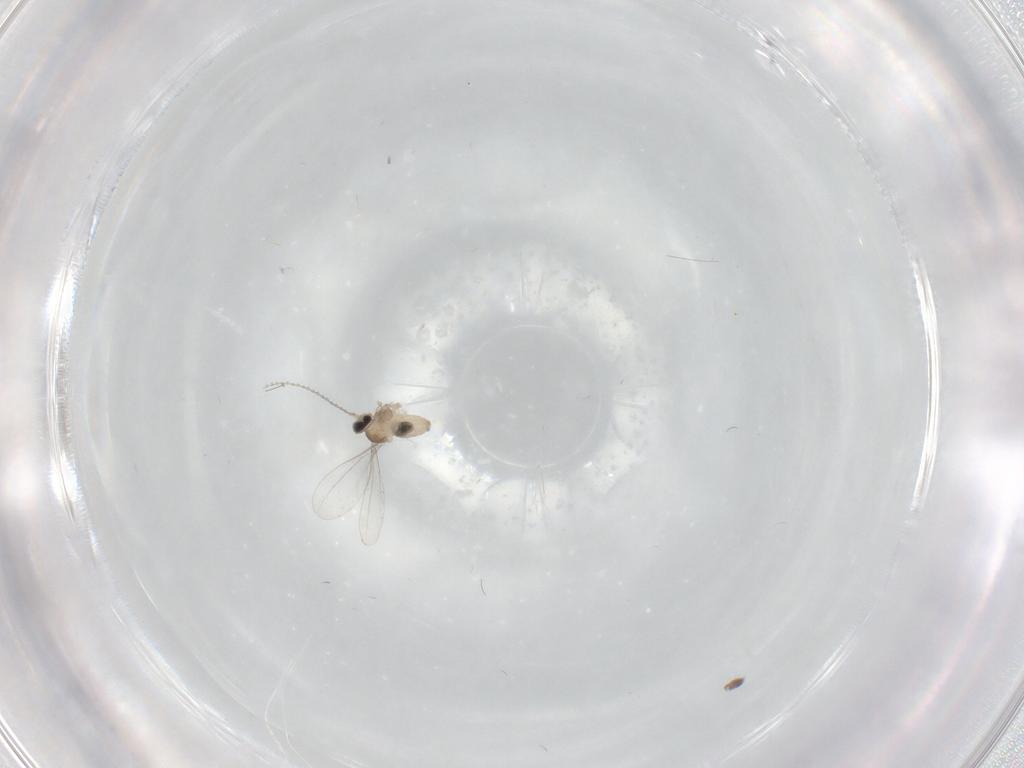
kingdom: Animalia
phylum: Arthropoda
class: Insecta
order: Diptera
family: Cecidomyiidae
